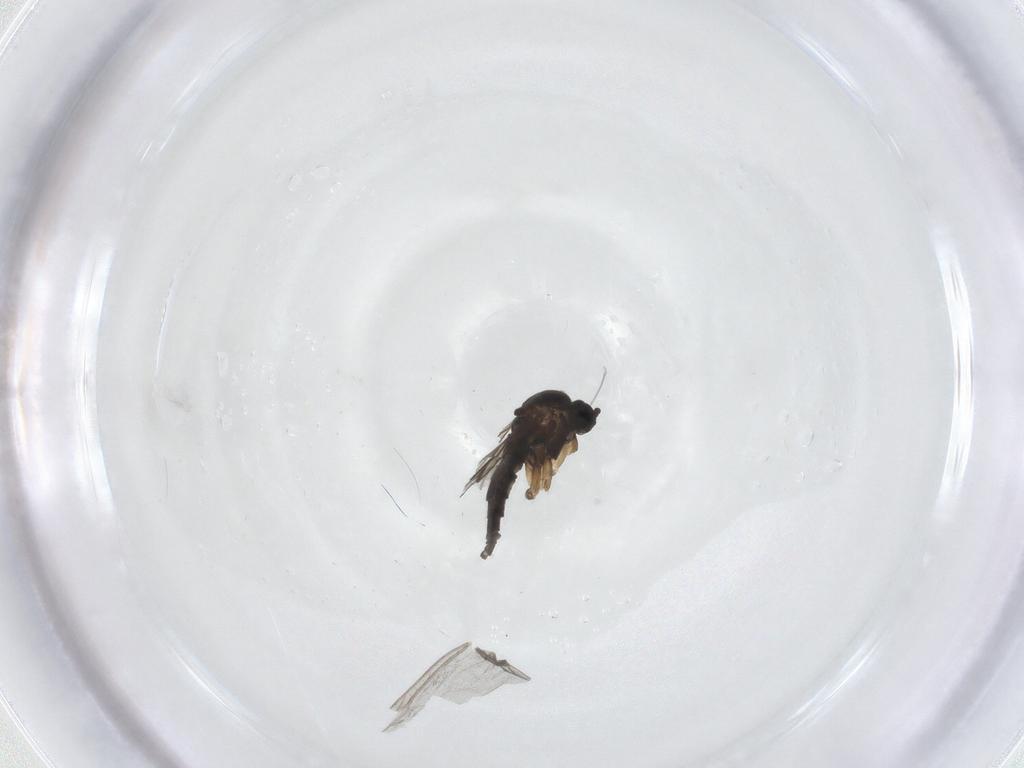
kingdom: Animalia
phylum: Arthropoda
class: Insecta
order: Diptera
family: Sciaridae
